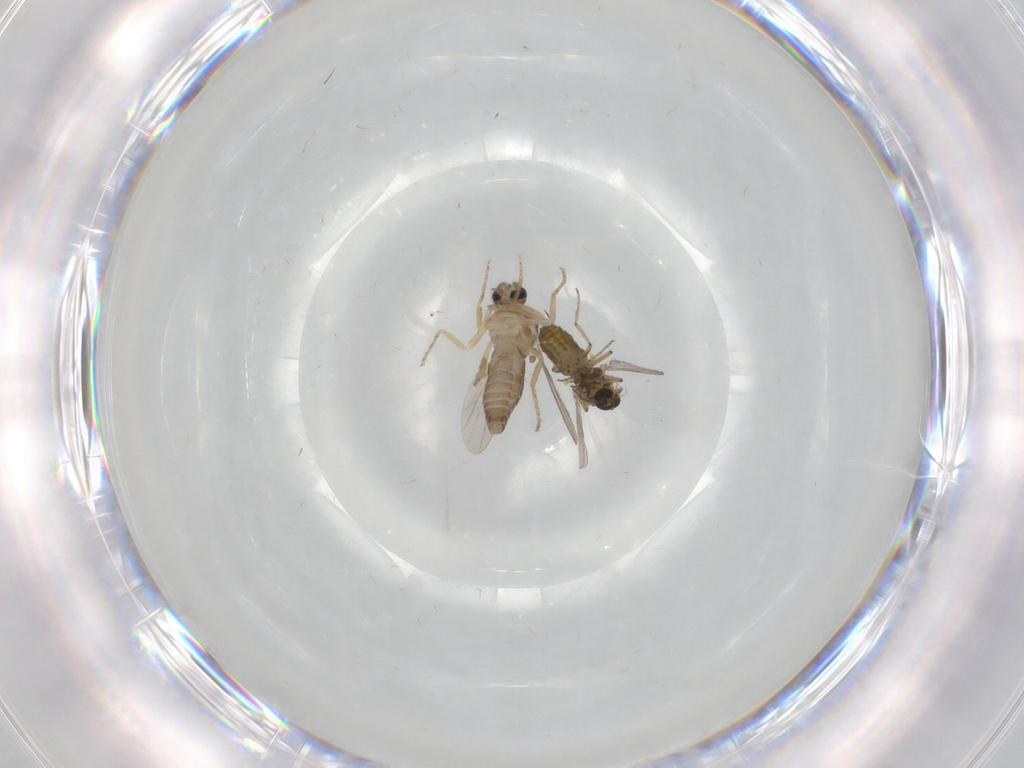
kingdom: Animalia
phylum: Arthropoda
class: Insecta
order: Diptera
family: Ceratopogonidae
